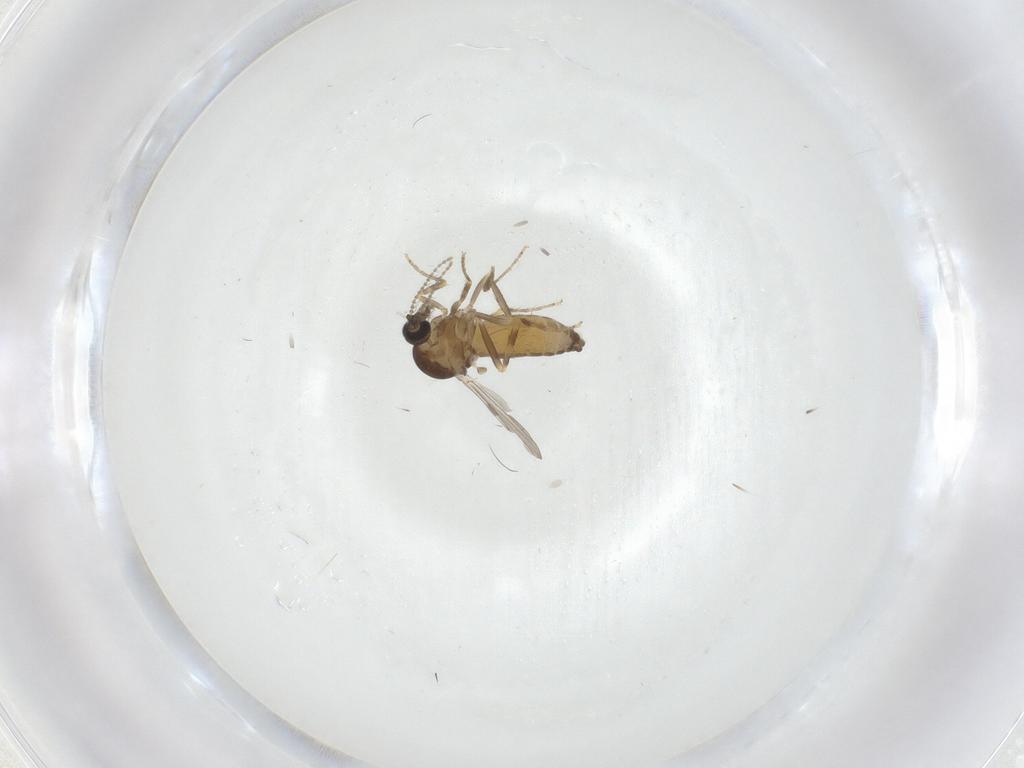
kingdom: Animalia
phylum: Arthropoda
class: Insecta
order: Diptera
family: Ceratopogonidae
